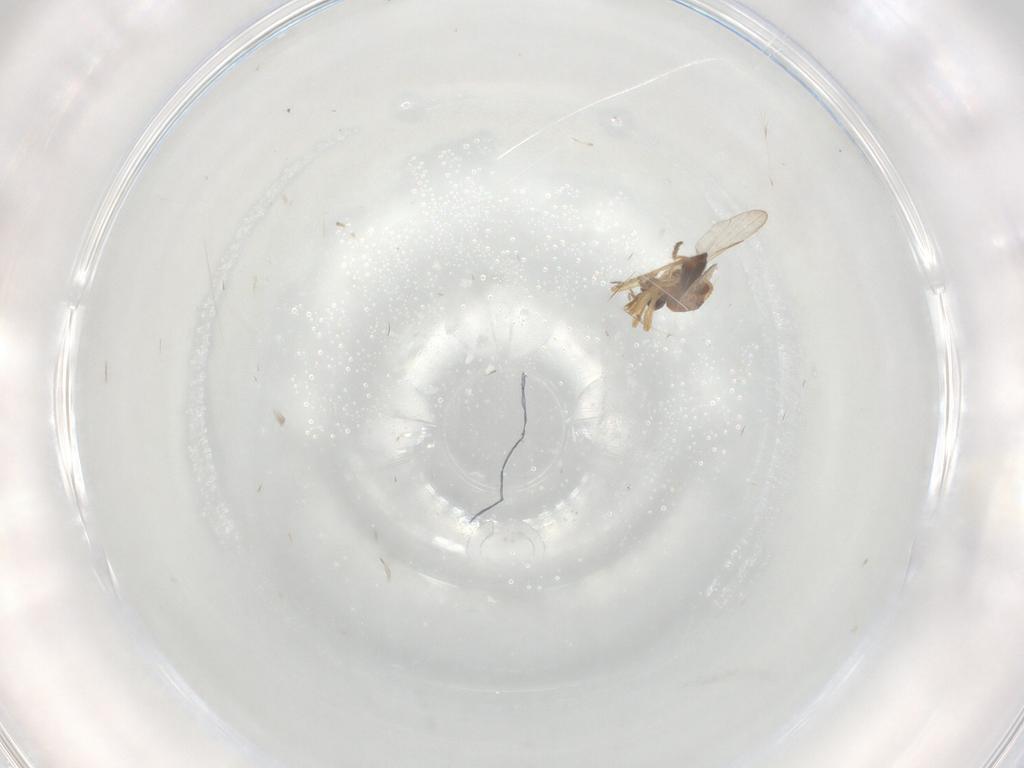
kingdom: Animalia
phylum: Arthropoda
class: Insecta
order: Diptera
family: Ceratopogonidae
